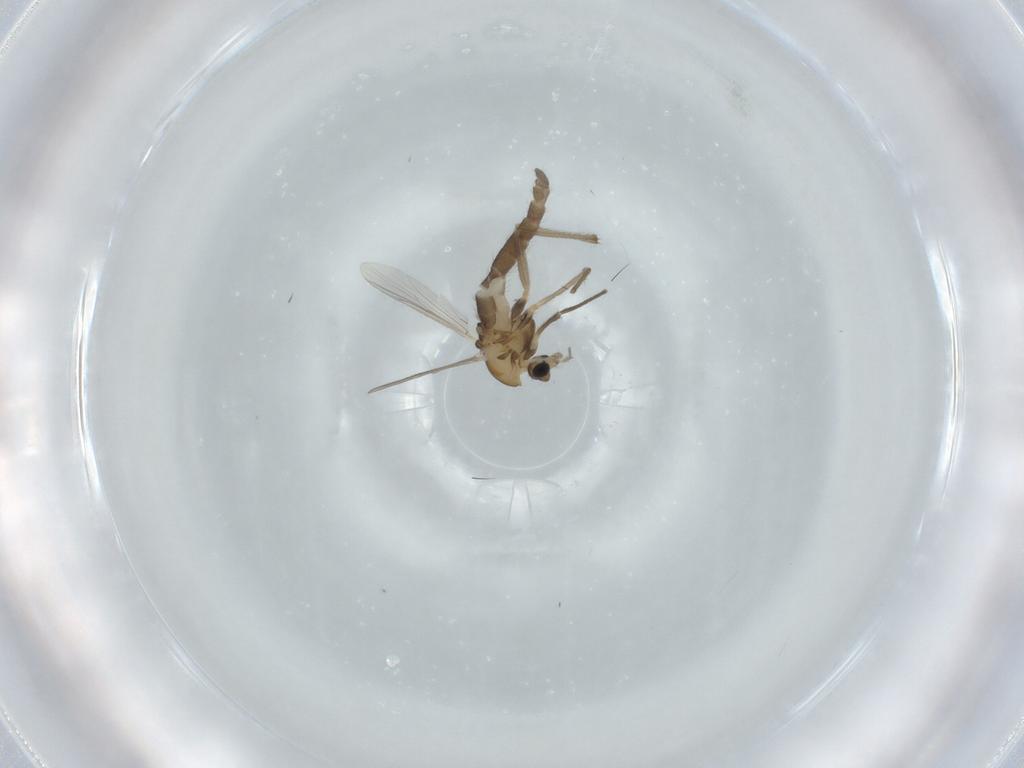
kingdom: Animalia
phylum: Arthropoda
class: Insecta
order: Diptera
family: Chironomidae
